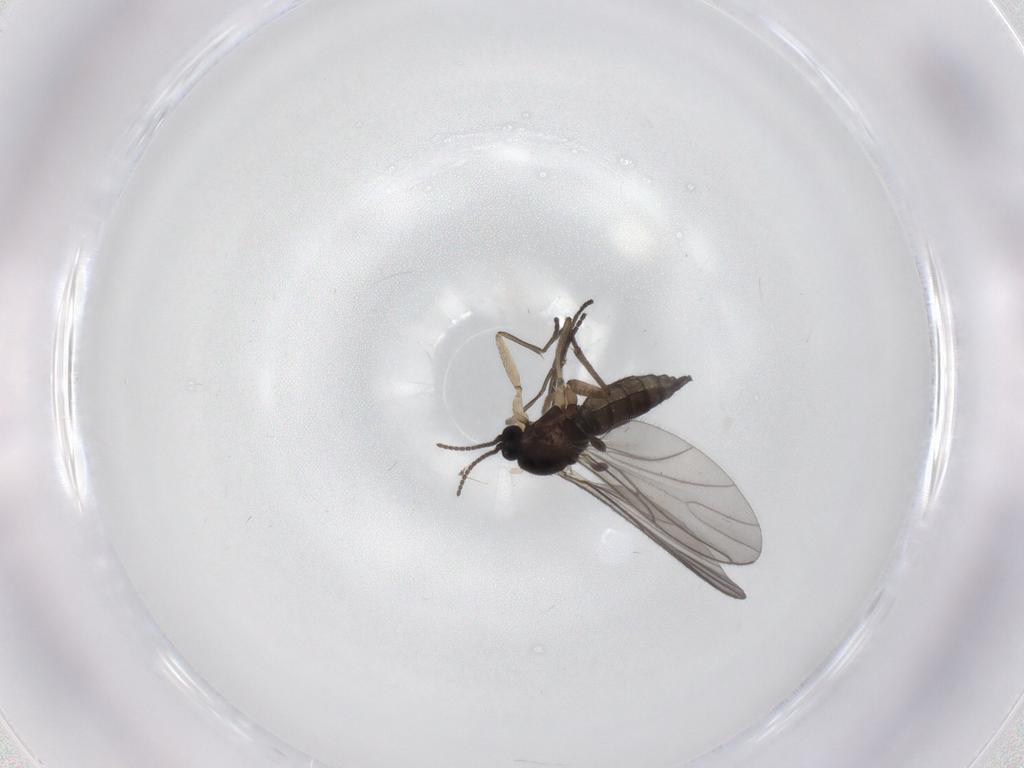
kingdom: Animalia
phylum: Arthropoda
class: Insecta
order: Diptera
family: Sciaridae
